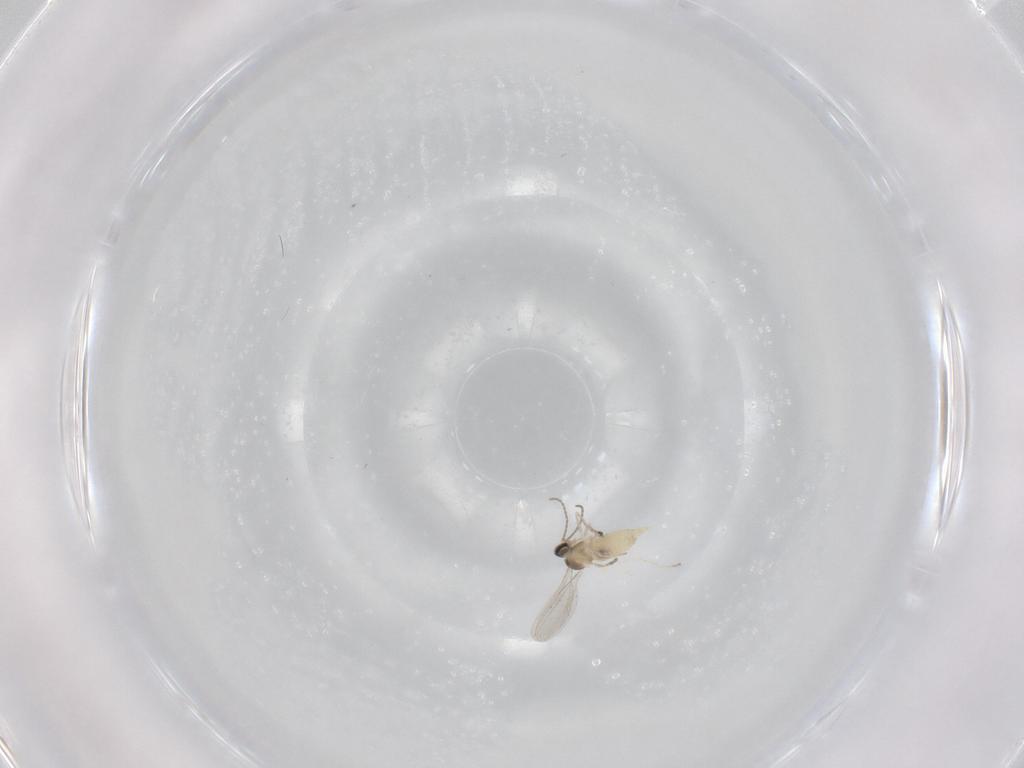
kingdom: Animalia
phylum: Arthropoda
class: Insecta
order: Diptera
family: Cecidomyiidae
